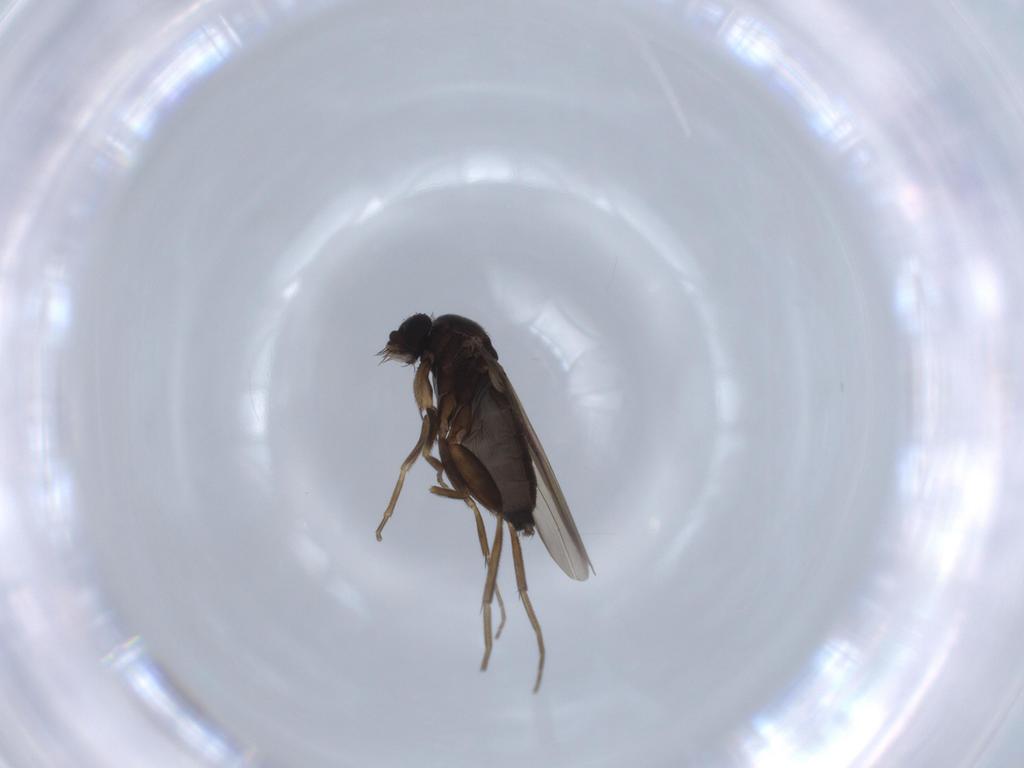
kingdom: Animalia
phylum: Arthropoda
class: Insecta
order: Diptera
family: Phoridae
